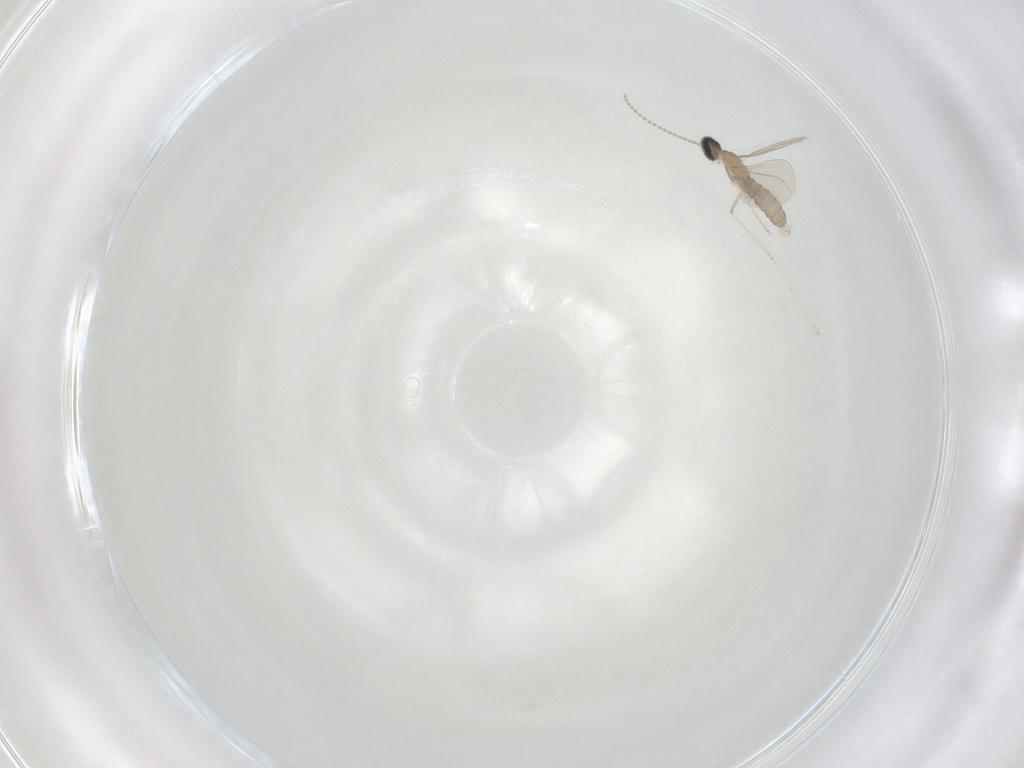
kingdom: Animalia
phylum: Arthropoda
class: Insecta
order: Diptera
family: Cecidomyiidae
